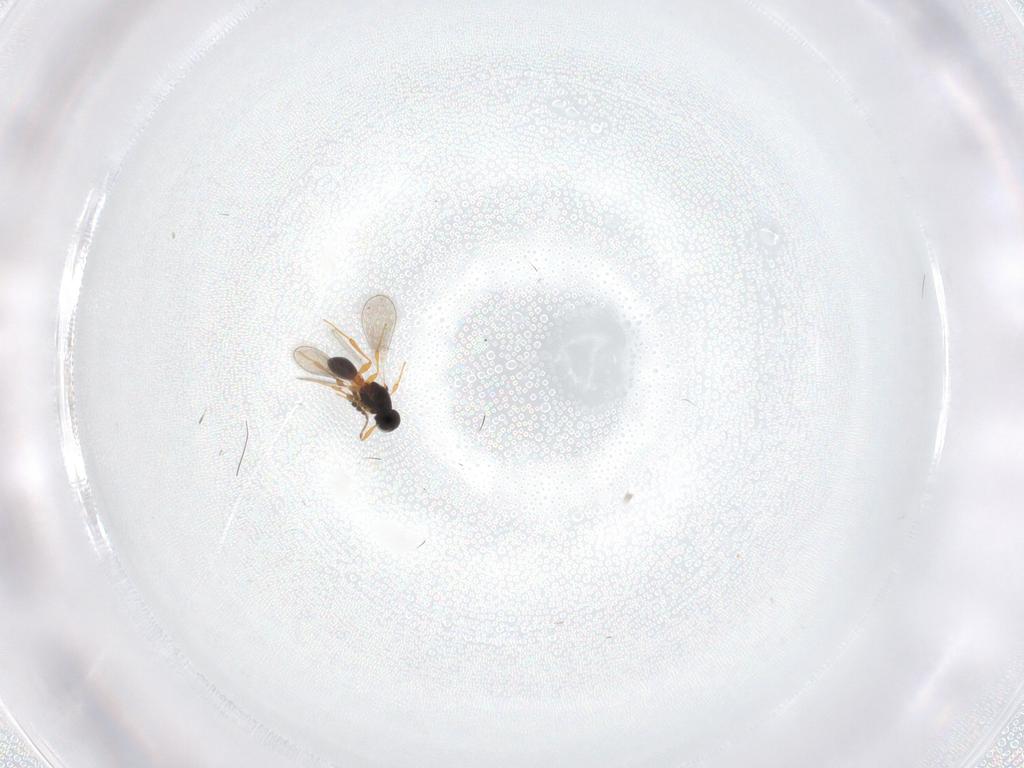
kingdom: Animalia
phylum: Arthropoda
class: Insecta
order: Hymenoptera
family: Platygastridae
